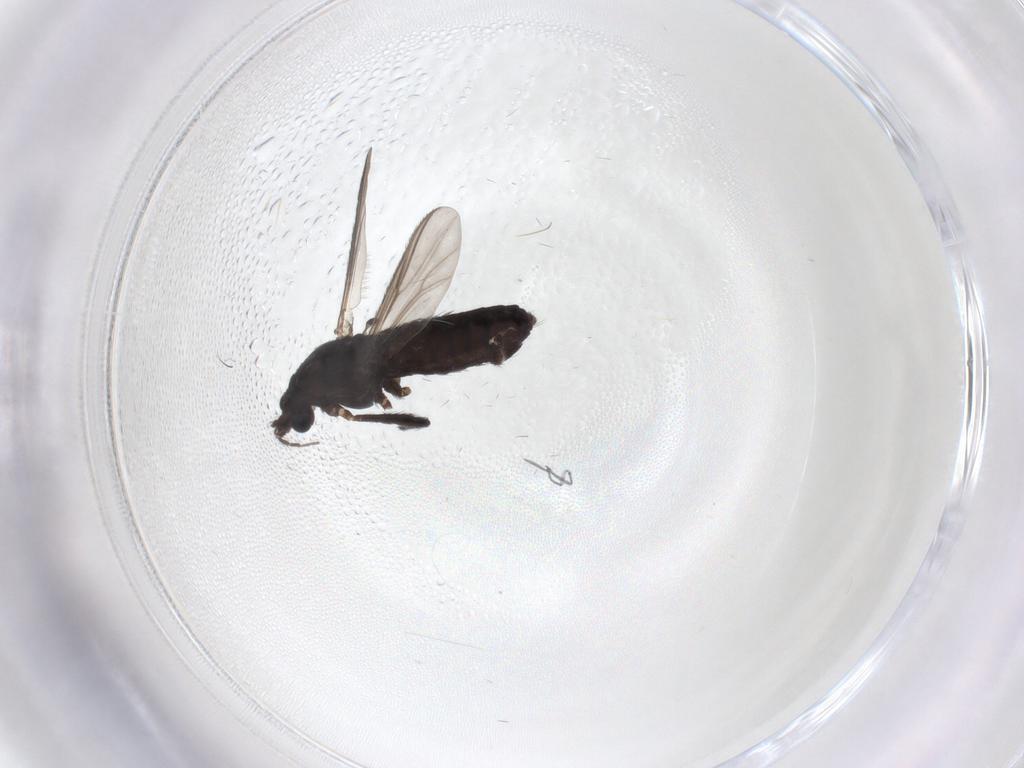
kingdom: Animalia
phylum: Arthropoda
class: Insecta
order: Diptera
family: Chironomidae
